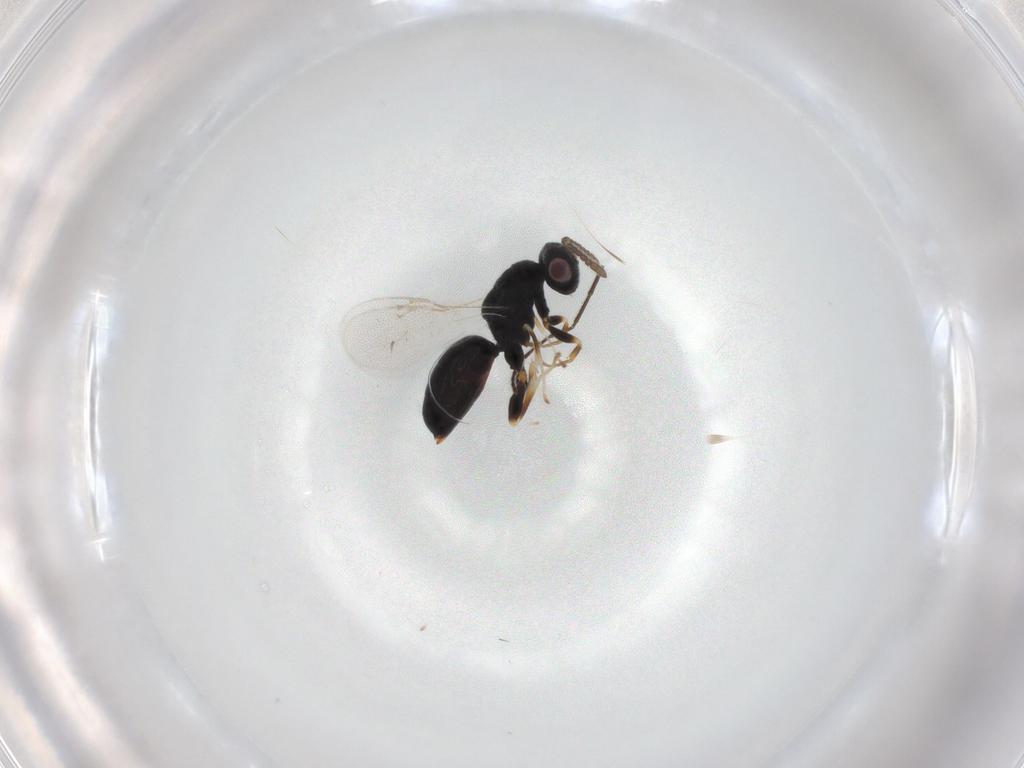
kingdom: Animalia
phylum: Arthropoda
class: Insecta
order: Hymenoptera
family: Eurytomidae
